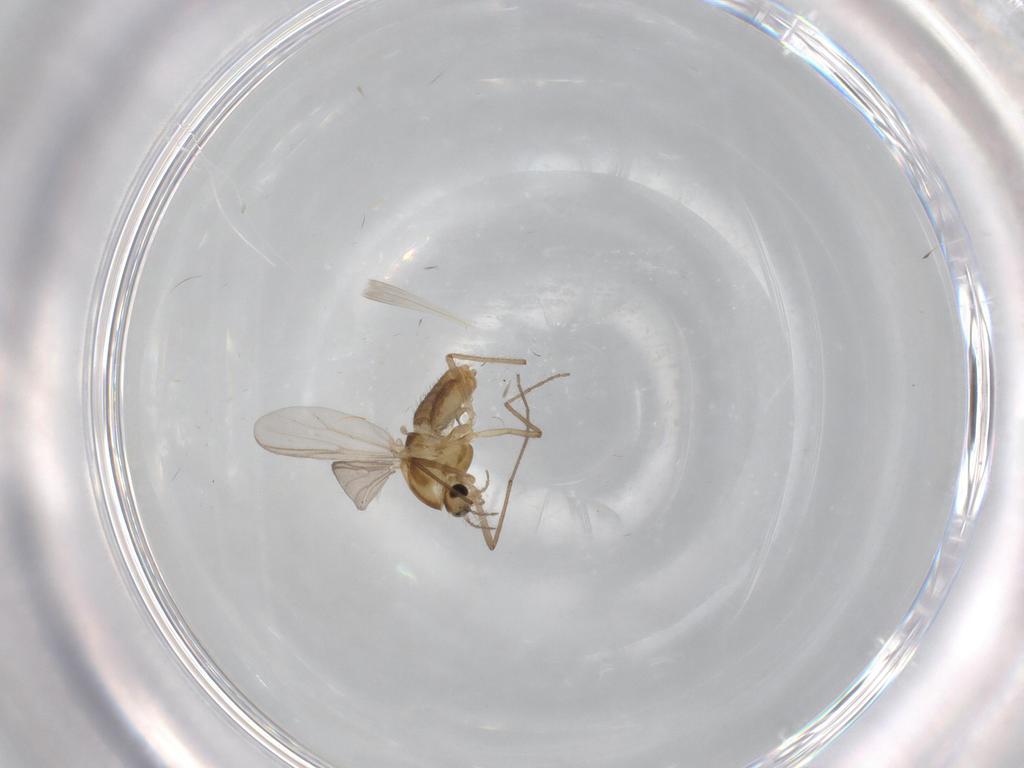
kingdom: Animalia
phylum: Arthropoda
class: Insecta
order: Diptera
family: Chironomidae
